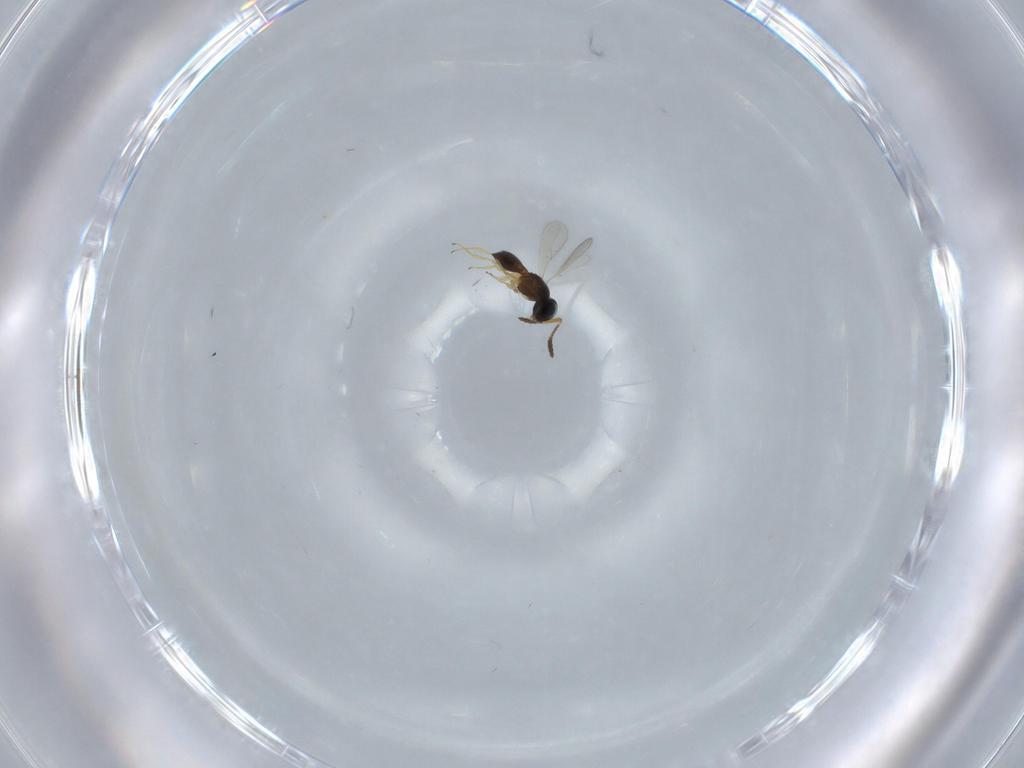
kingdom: Animalia
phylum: Arthropoda
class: Insecta
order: Hymenoptera
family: Scelionidae
